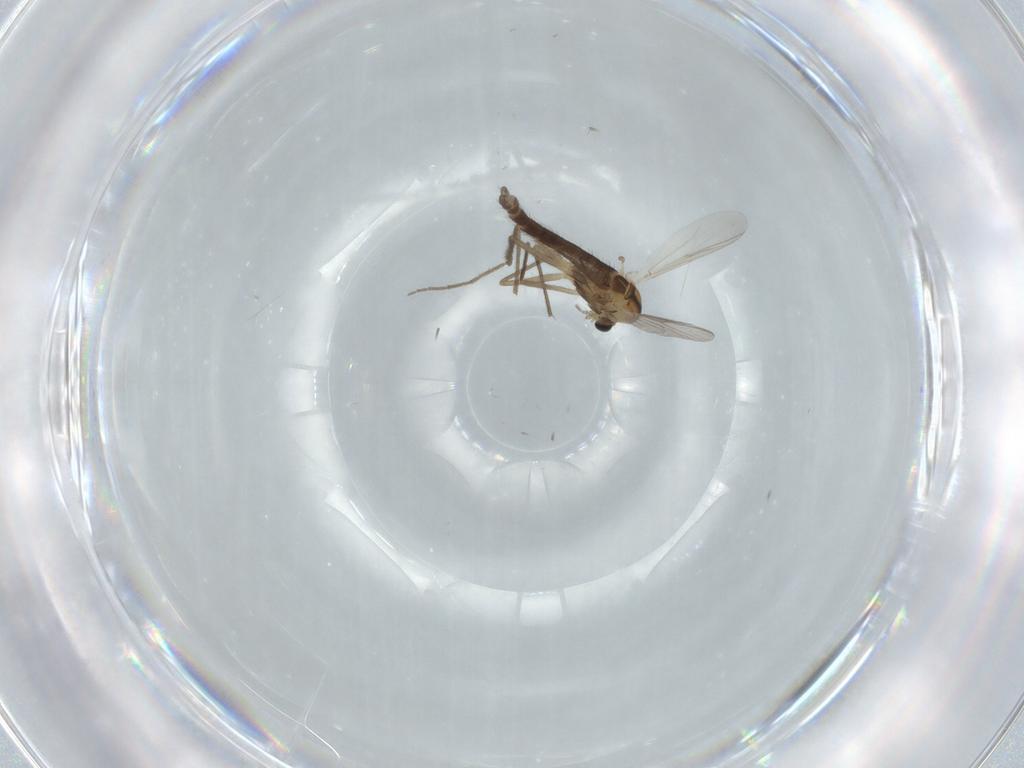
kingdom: Animalia
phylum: Arthropoda
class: Insecta
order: Diptera
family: Chironomidae
